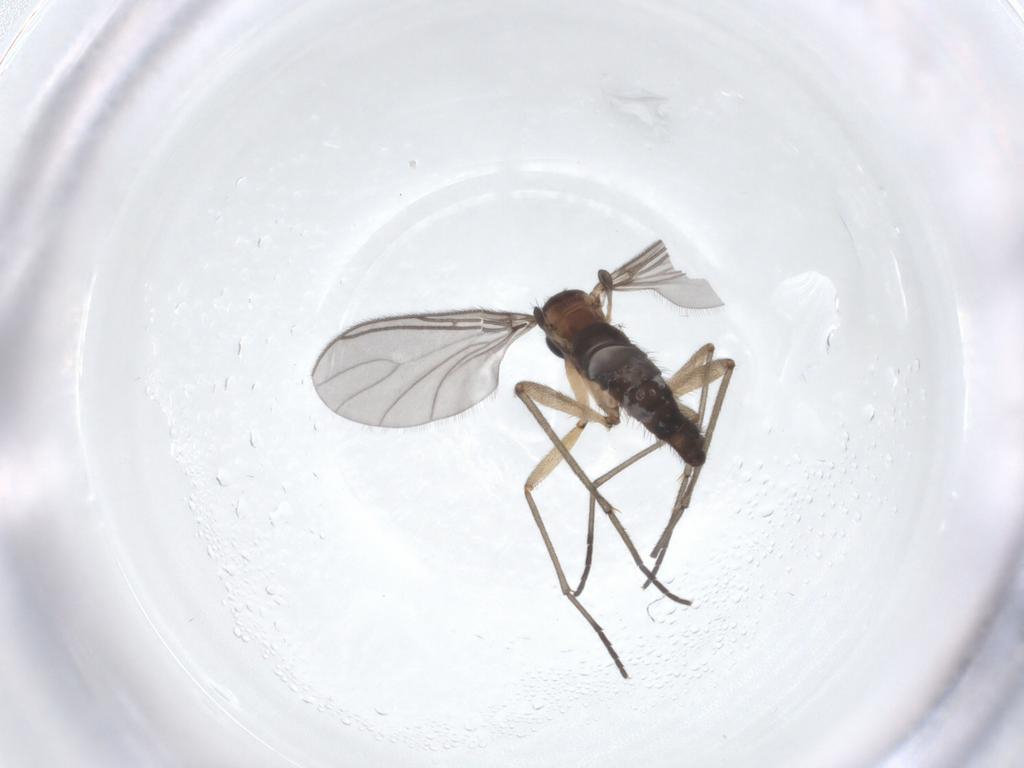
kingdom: Animalia
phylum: Arthropoda
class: Insecta
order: Diptera
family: Sciaridae
